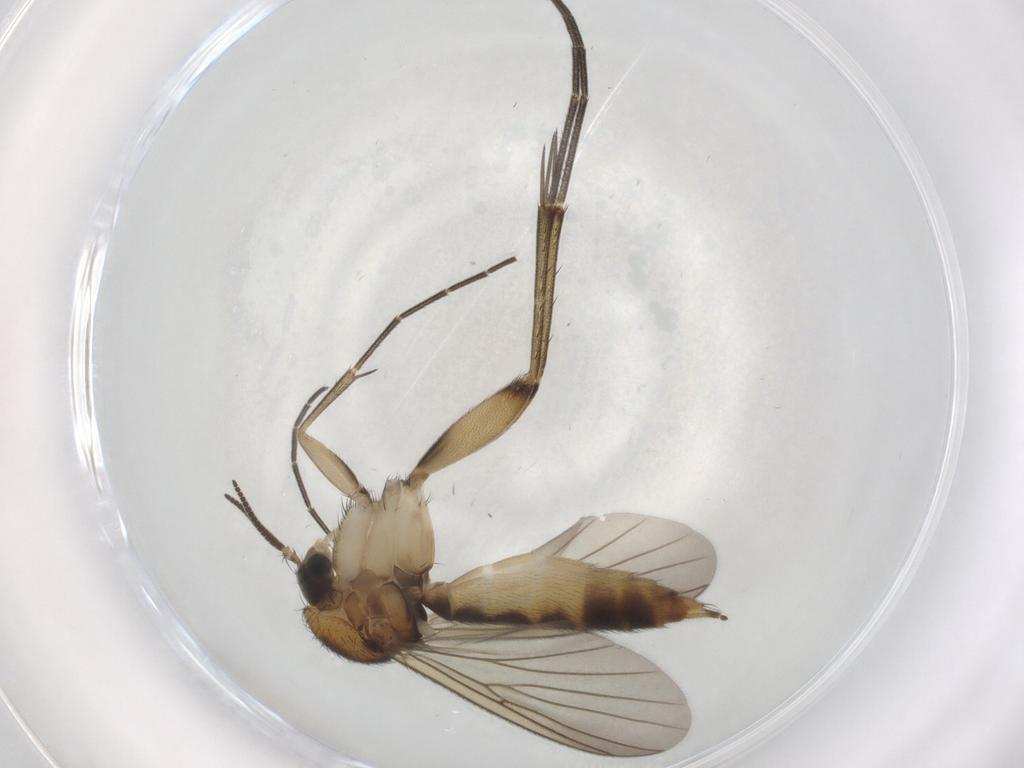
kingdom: Animalia
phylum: Arthropoda
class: Insecta
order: Diptera
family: Mycetophilidae
